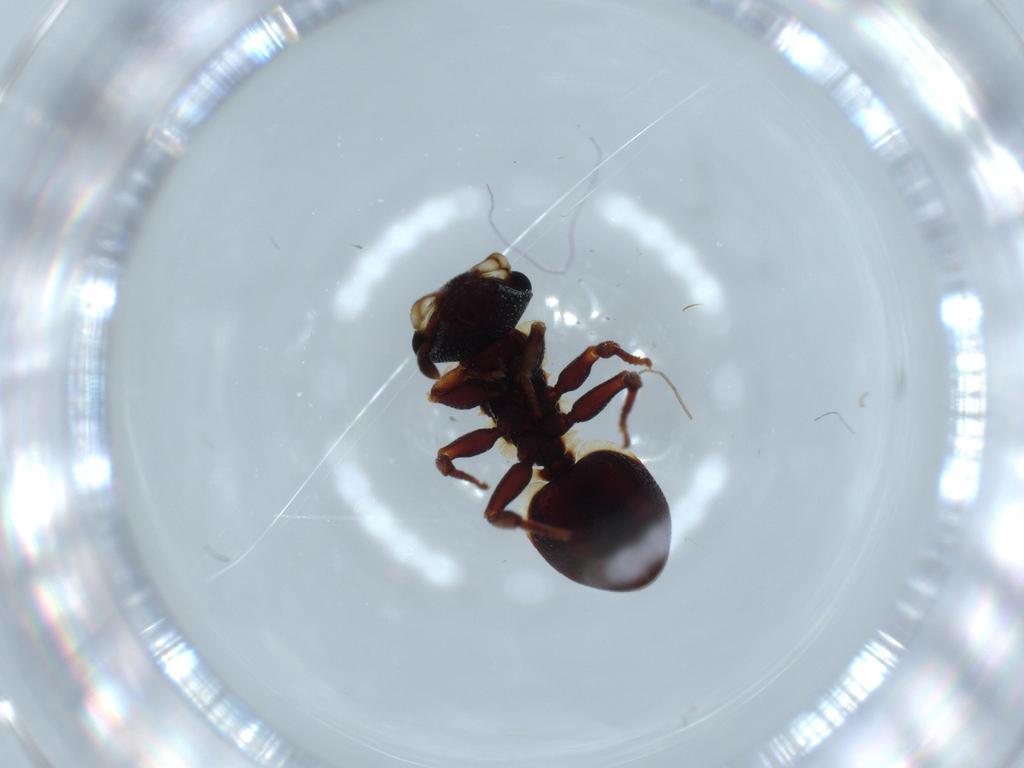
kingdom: Animalia
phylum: Arthropoda
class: Insecta
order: Hymenoptera
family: Formicidae
